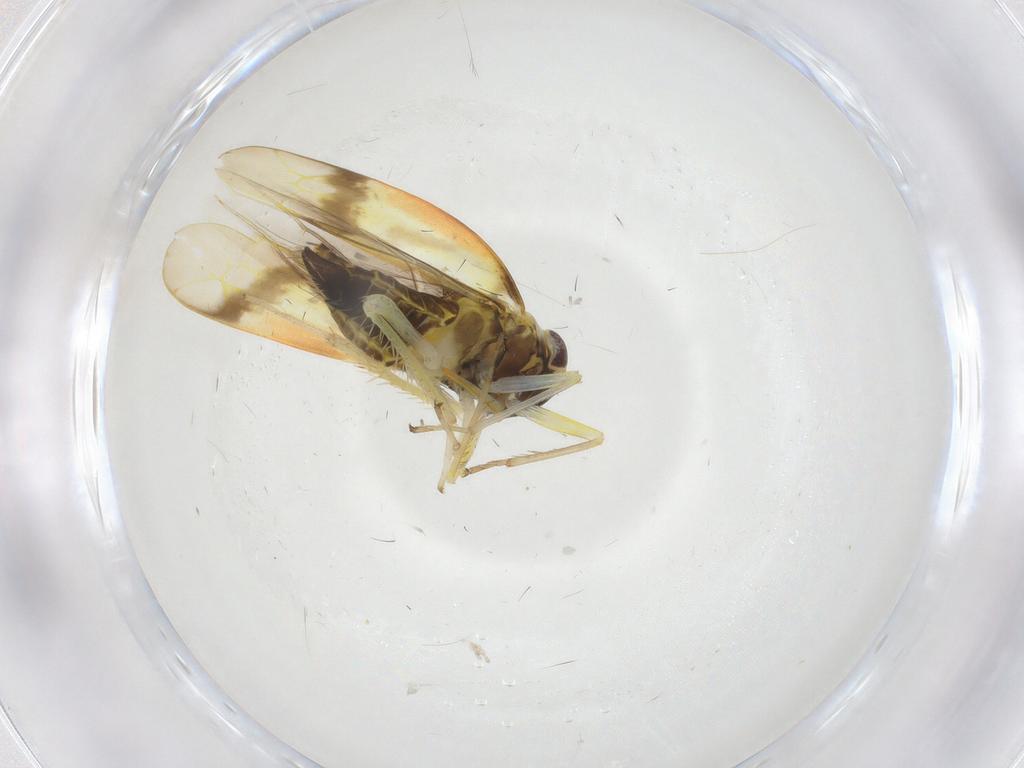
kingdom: Animalia
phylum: Arthropoda
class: Insecta
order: Hemiptera
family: Cicadellidae
